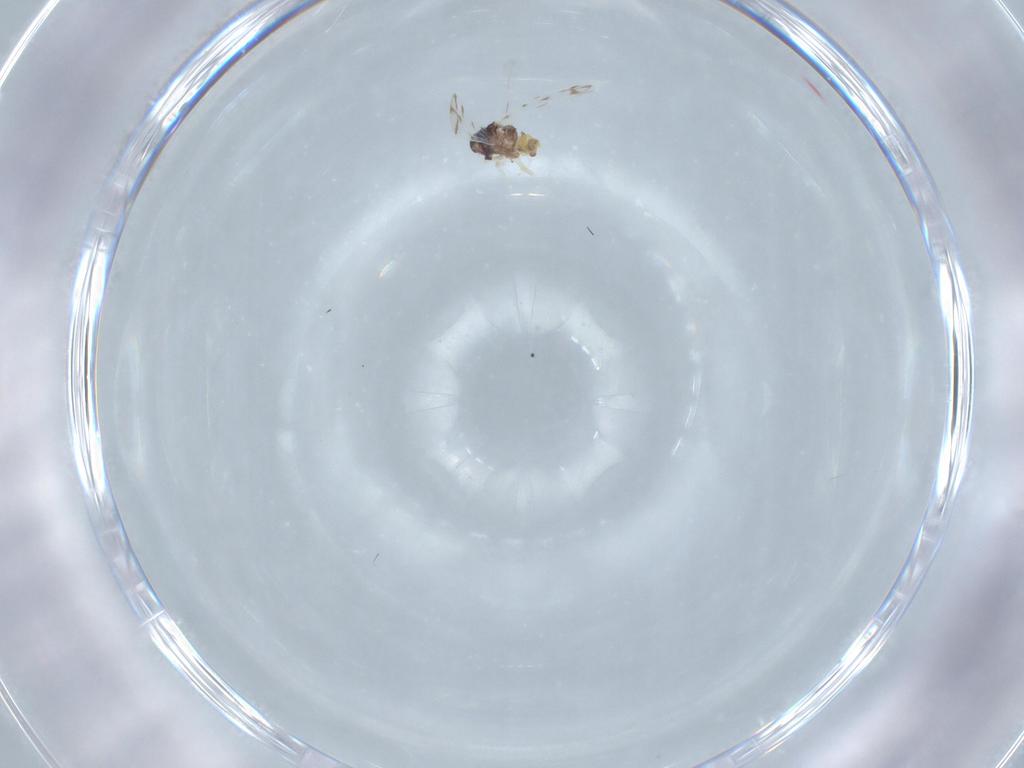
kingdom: Animalia
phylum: Arthropoda
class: Insecta
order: Hemiptera
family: Aleyrodidae
